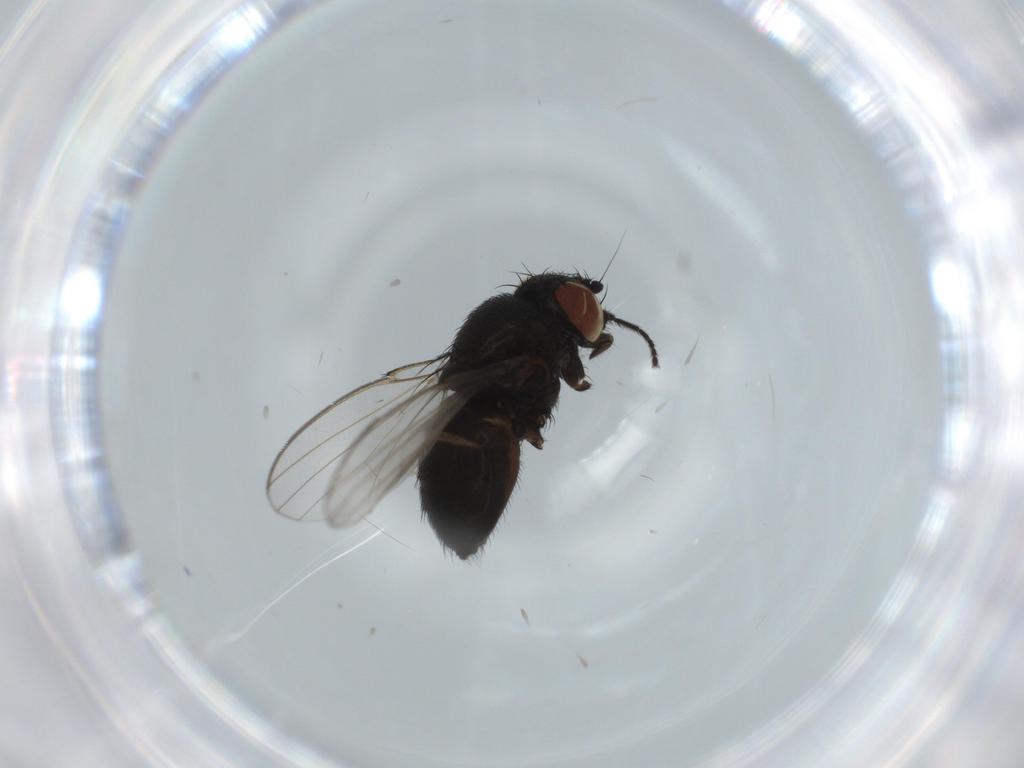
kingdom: Animalia
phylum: Arthropoda
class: Insecta
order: Diptera
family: Milichiidae
